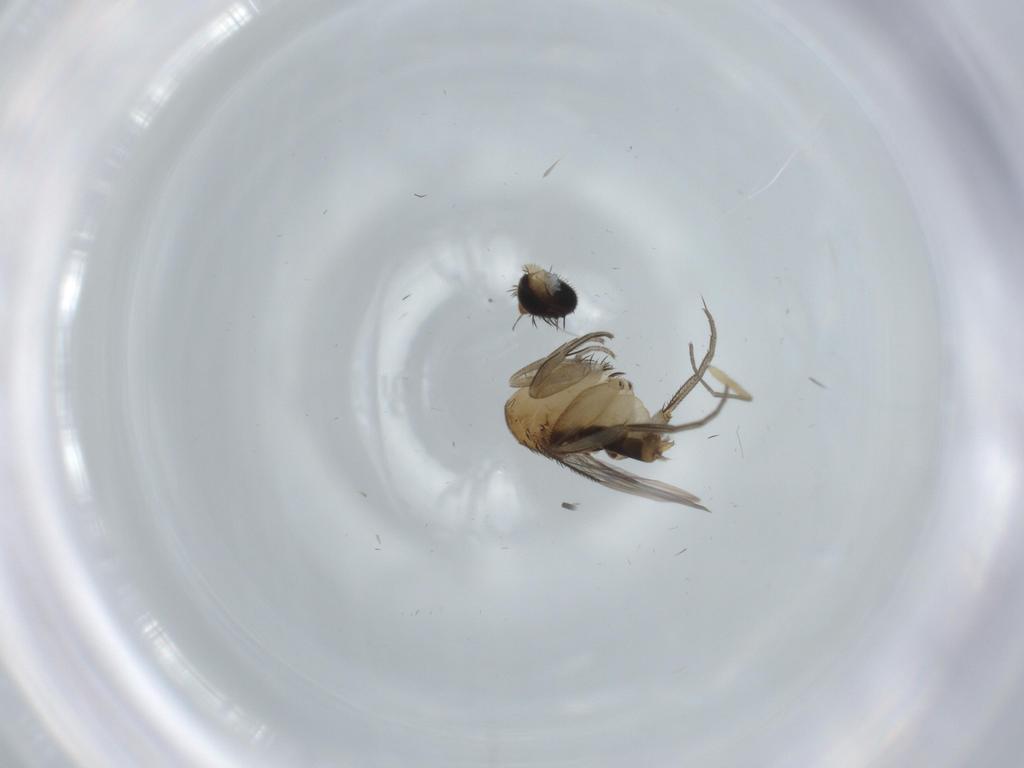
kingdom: Animalia
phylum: Arthropoda
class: Insecta
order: Diptera
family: Phoridae
